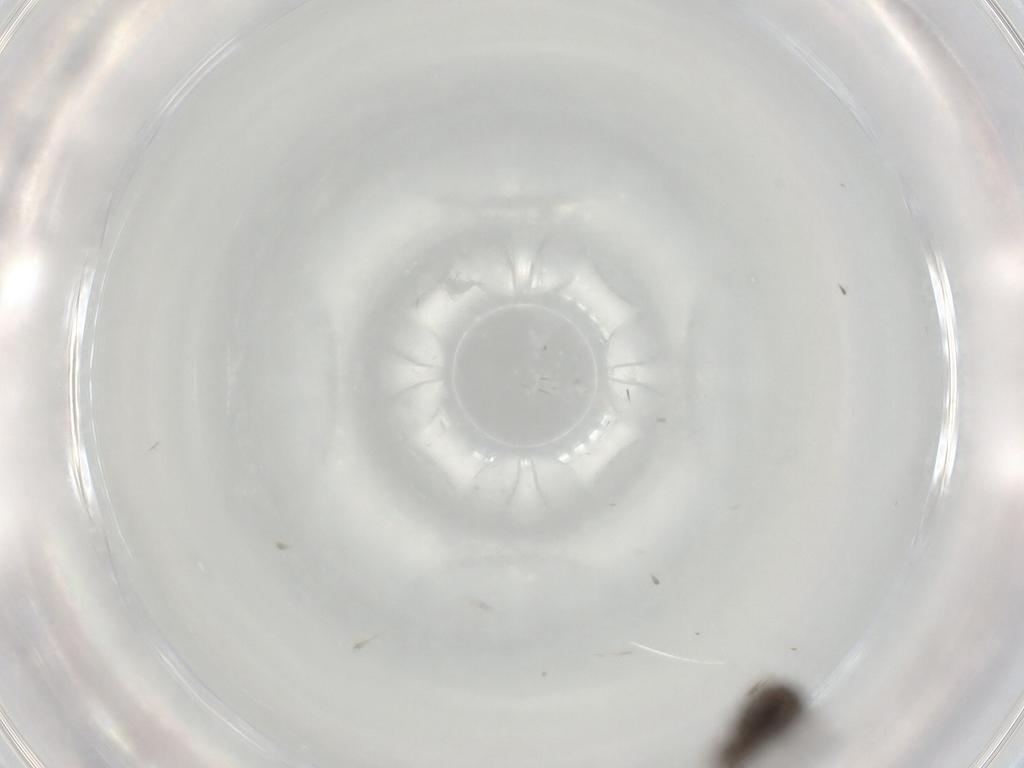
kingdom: Animalia
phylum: Arthropoda
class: Insecta
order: Diptera
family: Phoridae
